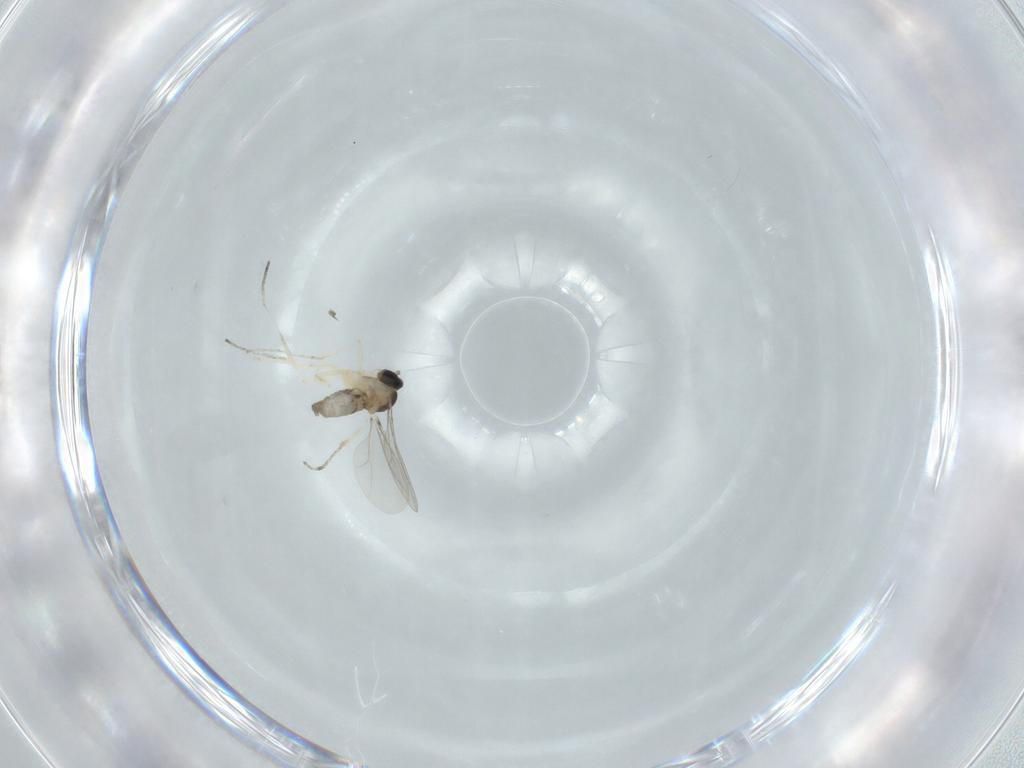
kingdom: Animalia
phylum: Arthropoda
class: Insecta
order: Diptera
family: Cecidomyiidae
